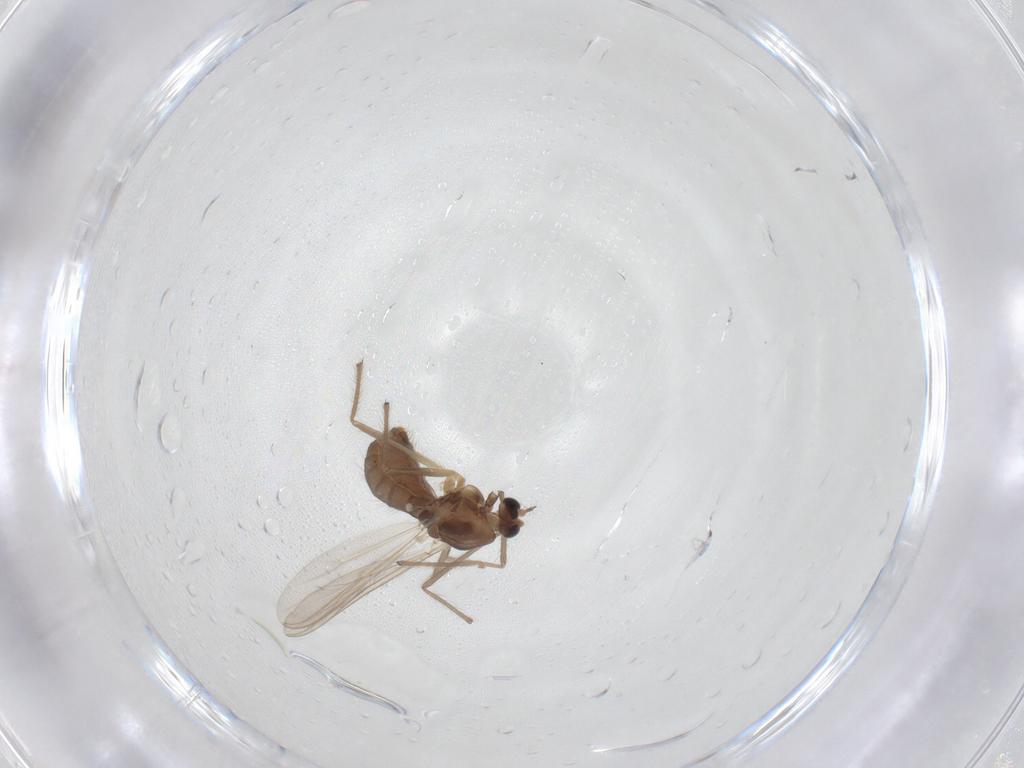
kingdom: Animalia
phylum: Arthropoda
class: Insecta
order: Diptera
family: Chironomidae
